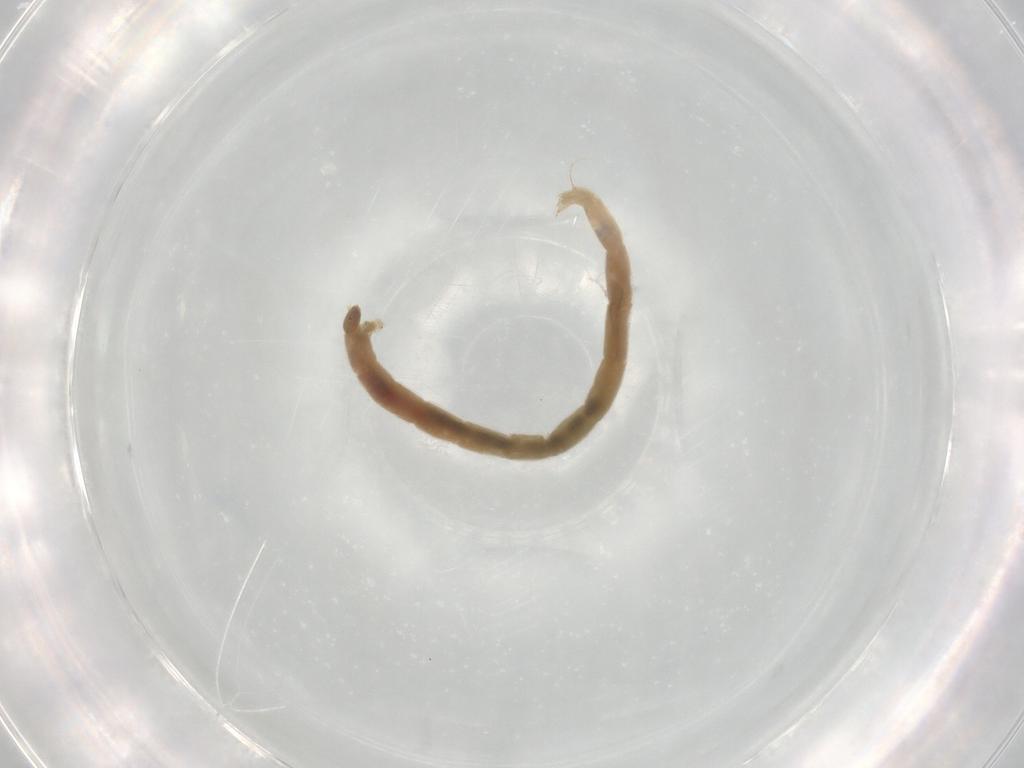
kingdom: Animalia
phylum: Arthropoda
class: Insecta
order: Diptera
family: Chironomidae
